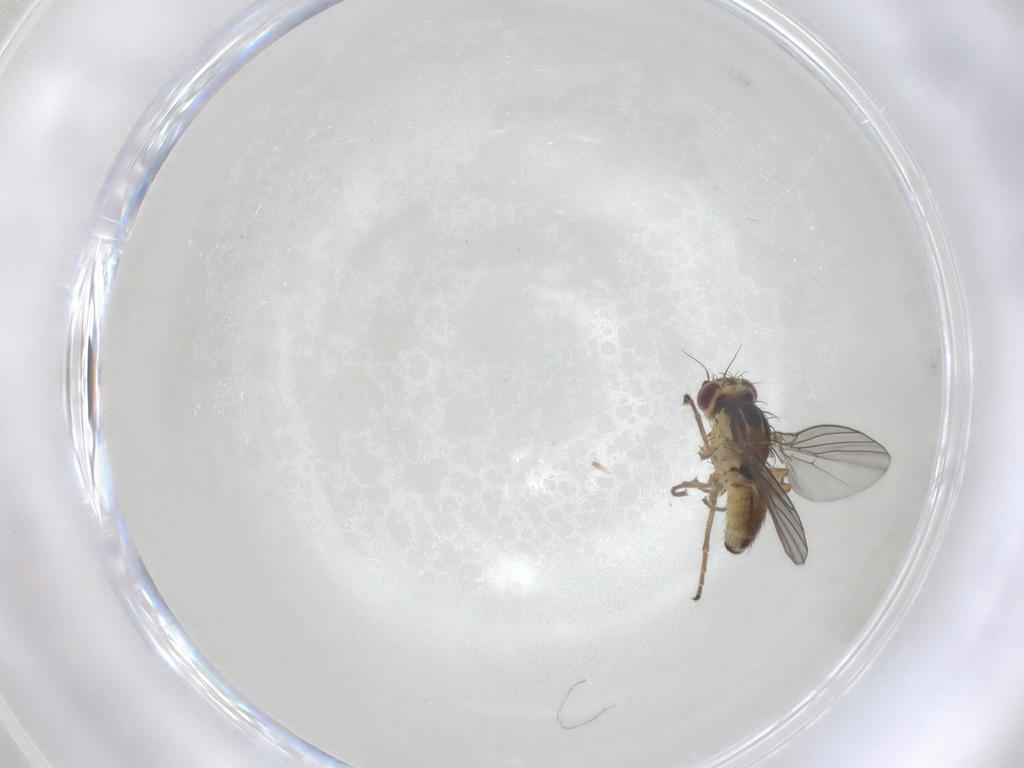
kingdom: Animalia
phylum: Arthropoda
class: Insecta
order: Diptera
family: Agromyzidae
